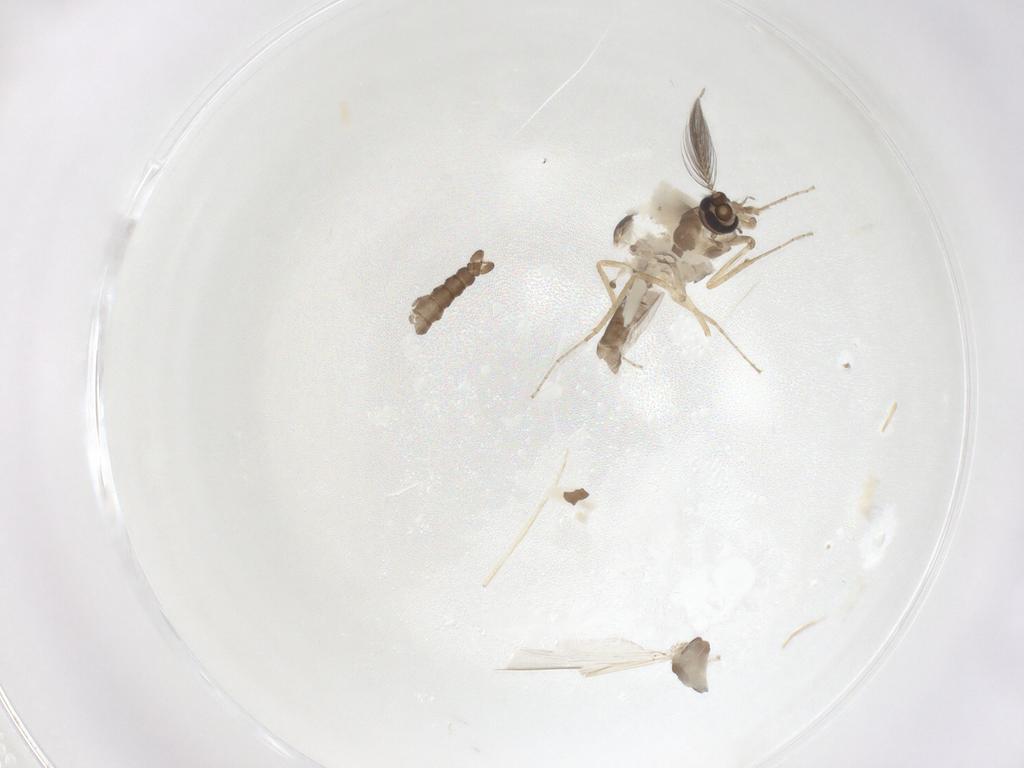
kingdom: Animalia
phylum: Arthropoda
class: Insecta
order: Diptera
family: Ceratopogonidae
